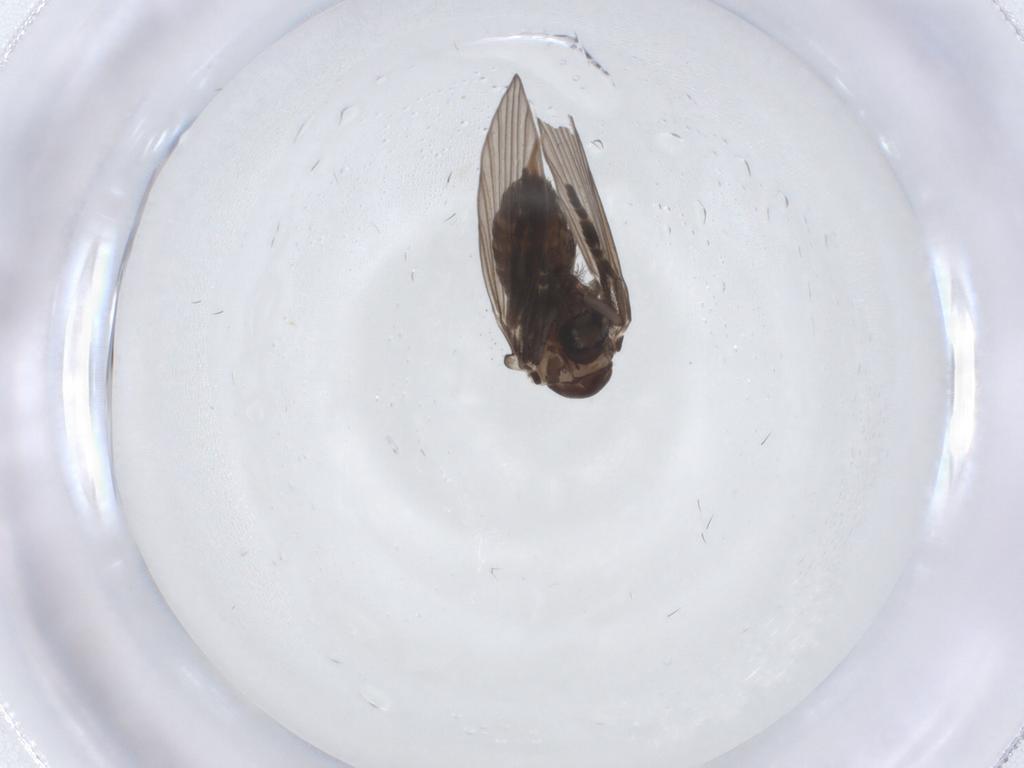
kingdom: Animalia
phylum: Arthropoda
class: Insecta
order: Diptera
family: Psychodidae
